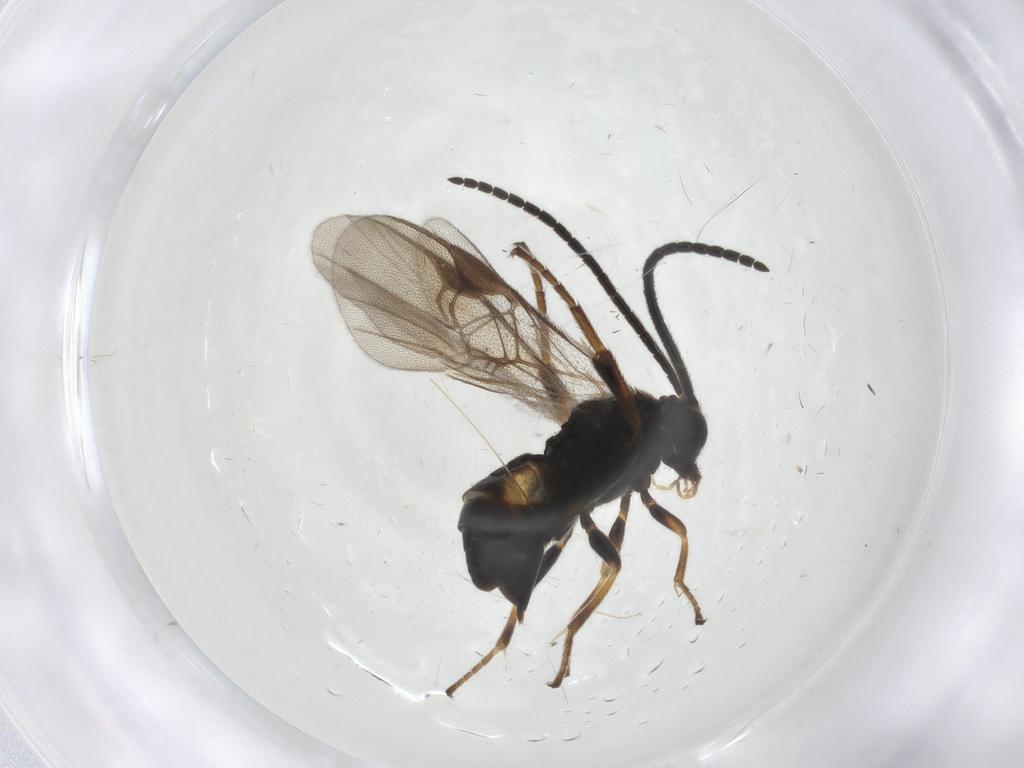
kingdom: Animalia
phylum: Arthropoda
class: Insecta
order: Hymenoptera
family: Braconidae
